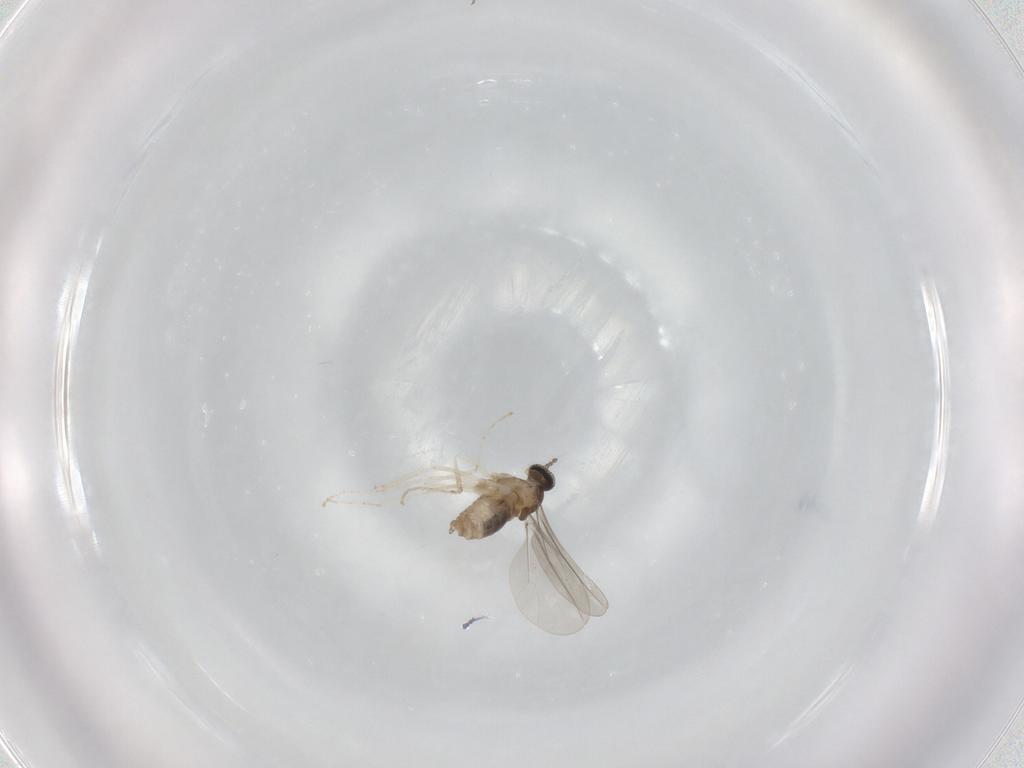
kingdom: Animalia
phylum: Arthropoda
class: Insecta
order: Diptera
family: Cecidomyiidae
